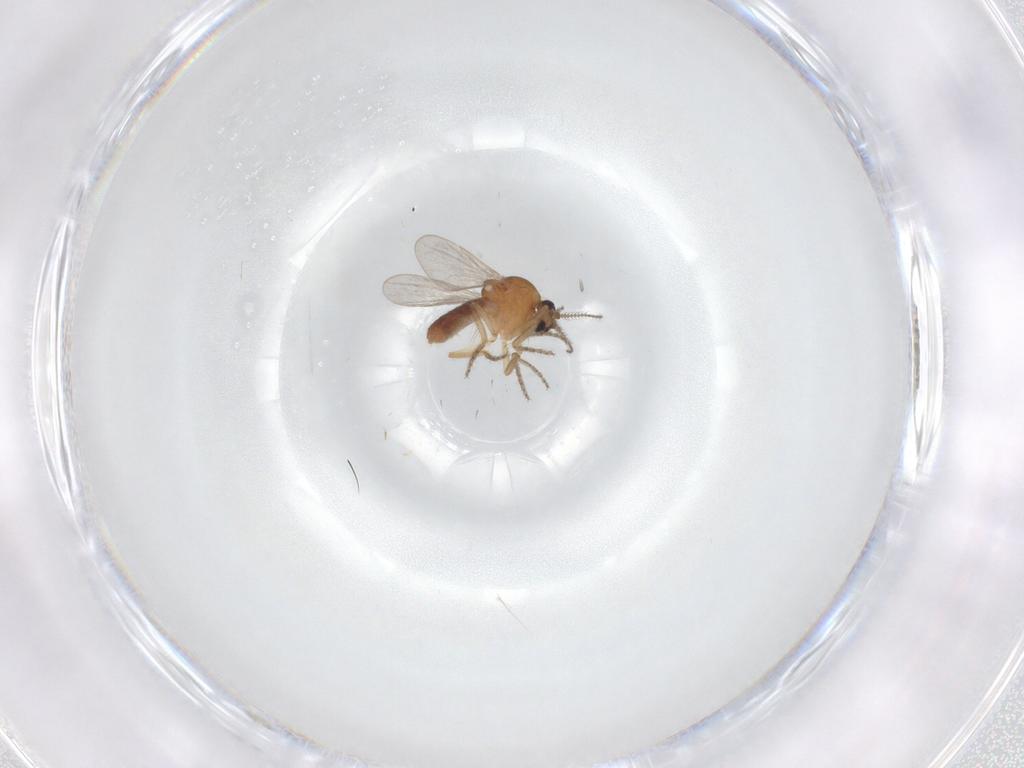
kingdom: Animalia
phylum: Arthropoda
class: Insecta
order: Diptera
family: Ceratopogonidae
